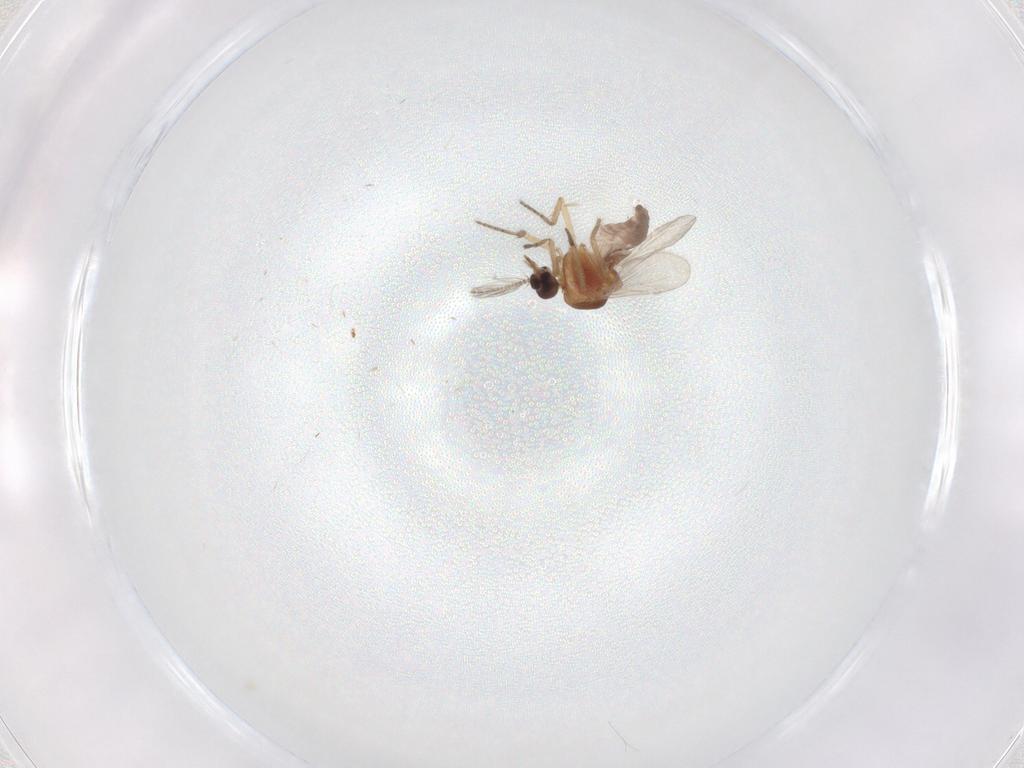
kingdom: Animalia
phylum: Arthropoda
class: Insecta
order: Diptera
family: Ceratopogonidae
